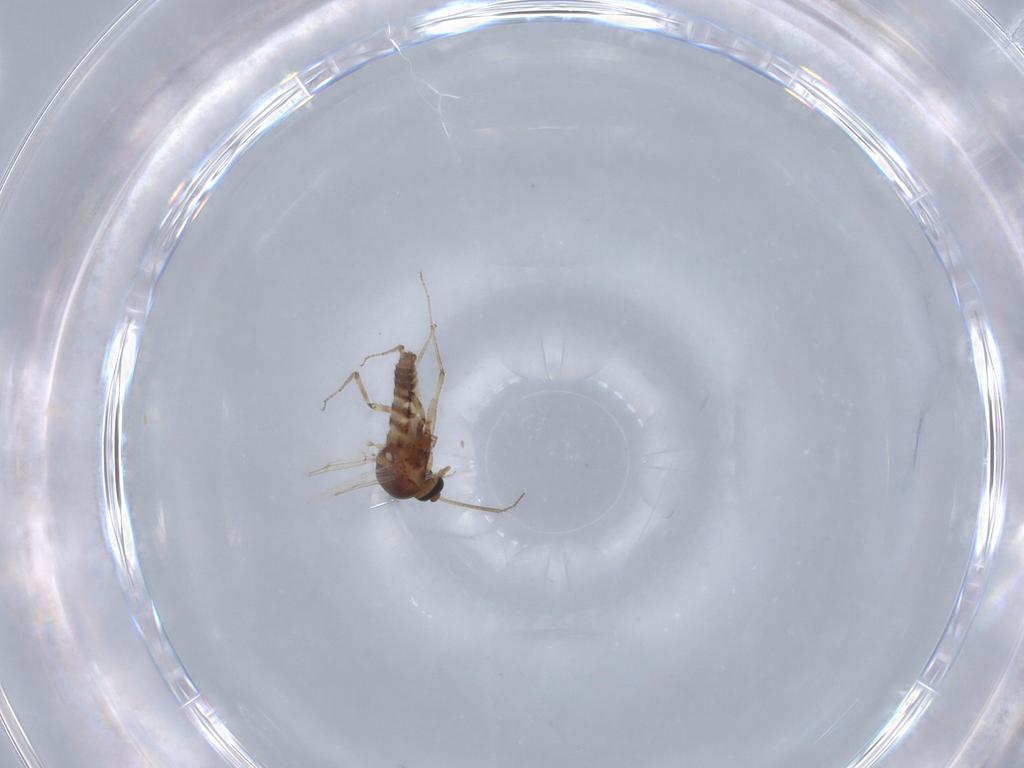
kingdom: Animalia
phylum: Arthropoda
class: Insecta
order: Diptera
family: Ceratopogonidae
